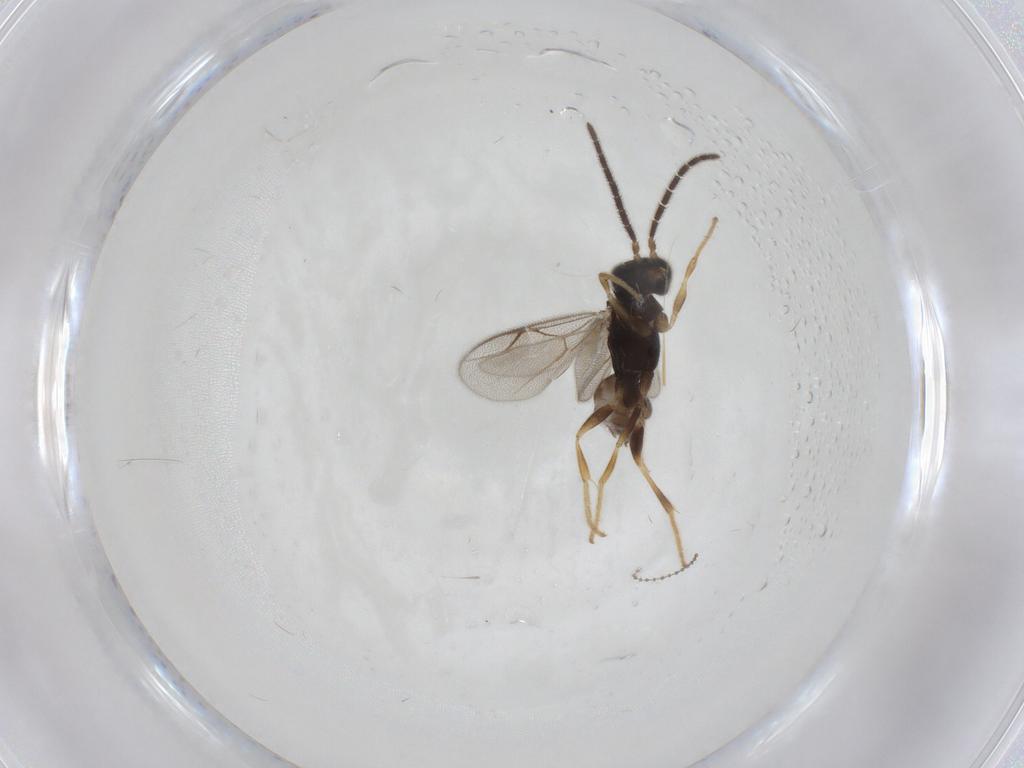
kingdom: Animalia
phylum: Arthropoda
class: Insecta
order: Hymenoptera
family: Dryinidae
